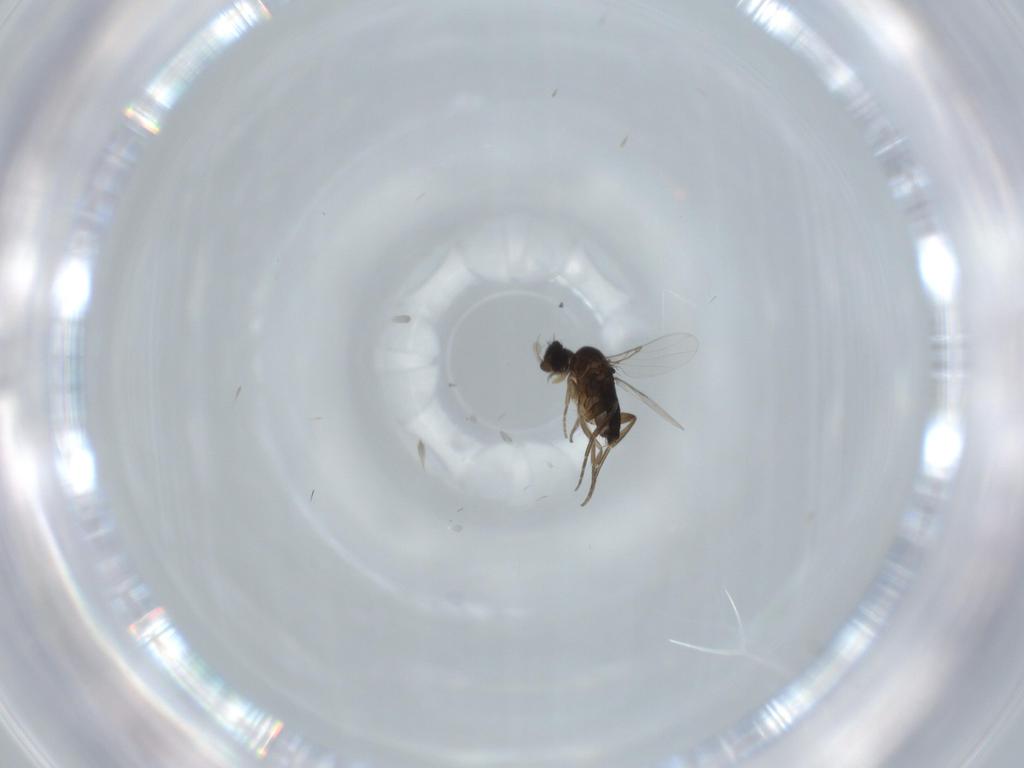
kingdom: Animalia
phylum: Arthropoda
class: Insecta
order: Diptera
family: Phoridae
